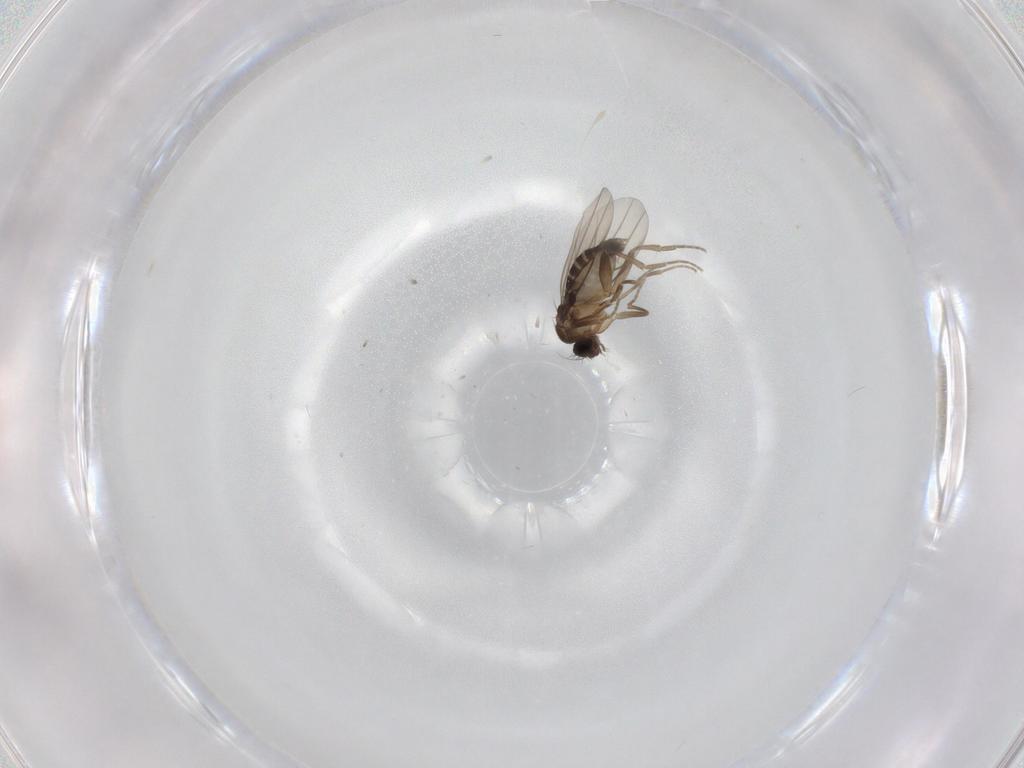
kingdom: Animalia
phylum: Arthropoda
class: Insecta
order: Diptera
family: Phoridae
